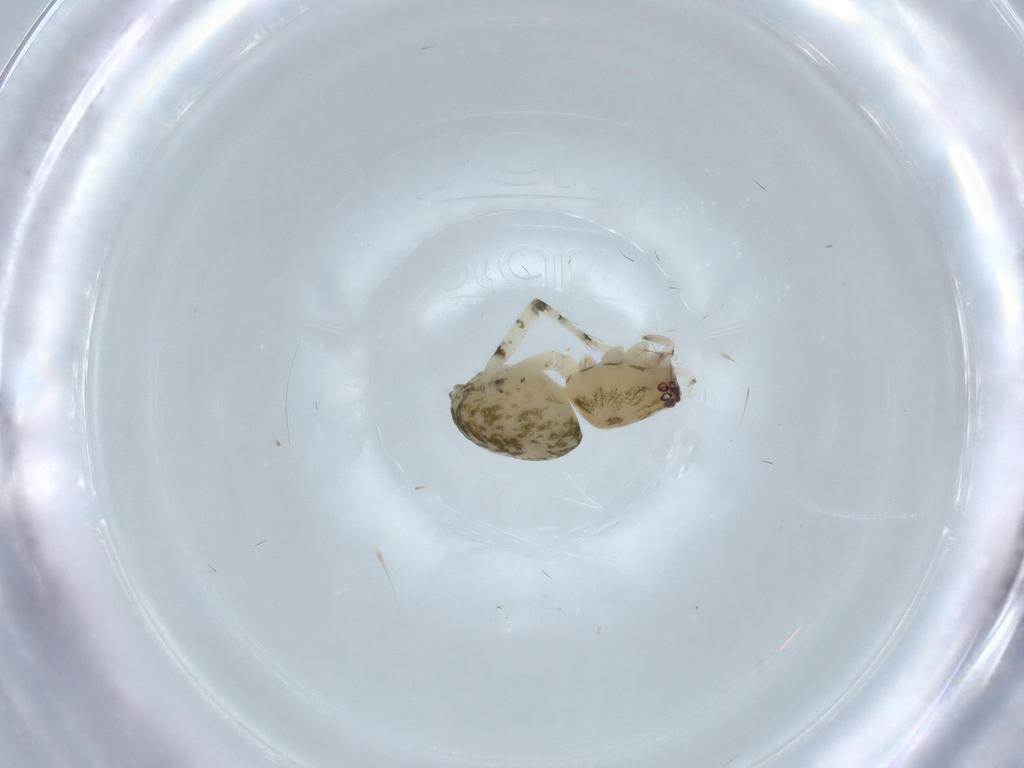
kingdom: Animalia
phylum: Arthropoda
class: Arachnida
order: Araneae
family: Anyphaenidae
